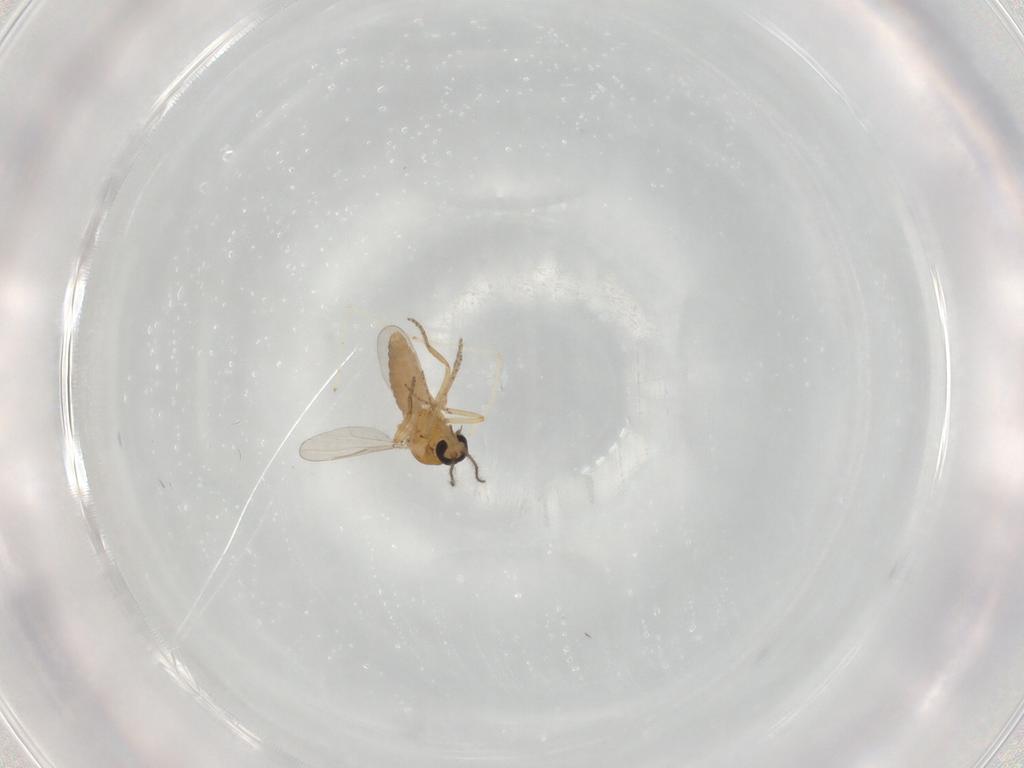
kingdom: Animalia
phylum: Arthropoda
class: Insecta
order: Diptera
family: Ceratopogonidae
